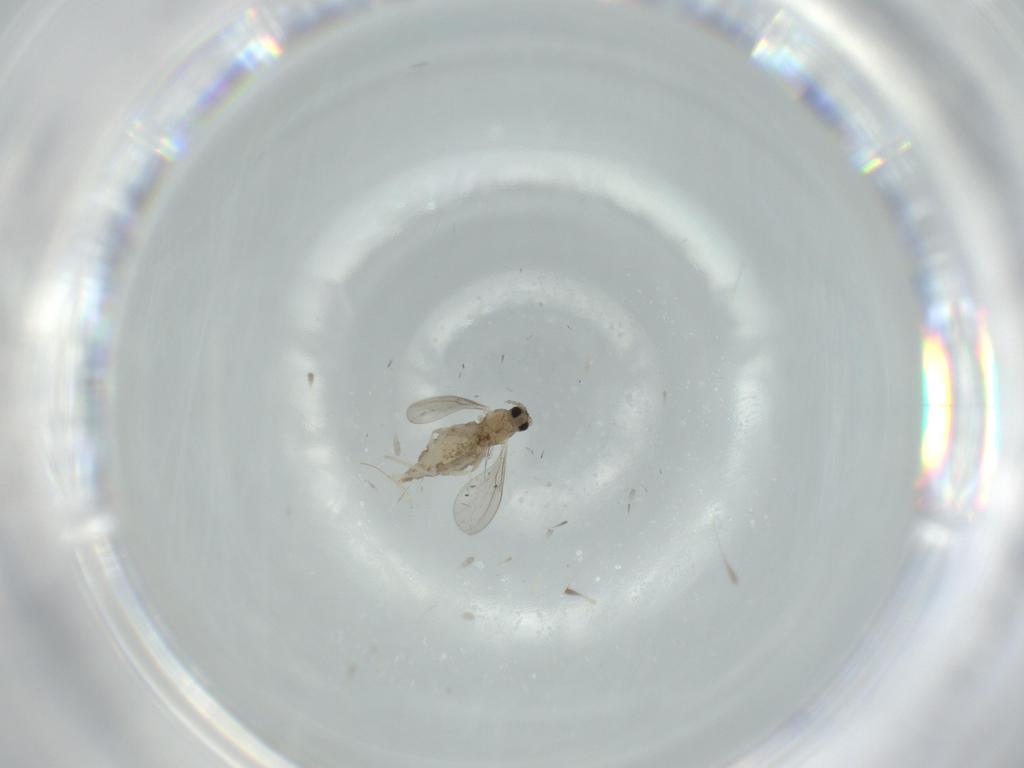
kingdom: Animalia
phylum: Arthropoda
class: Insecta
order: Diptera
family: Cecidomyiidae
